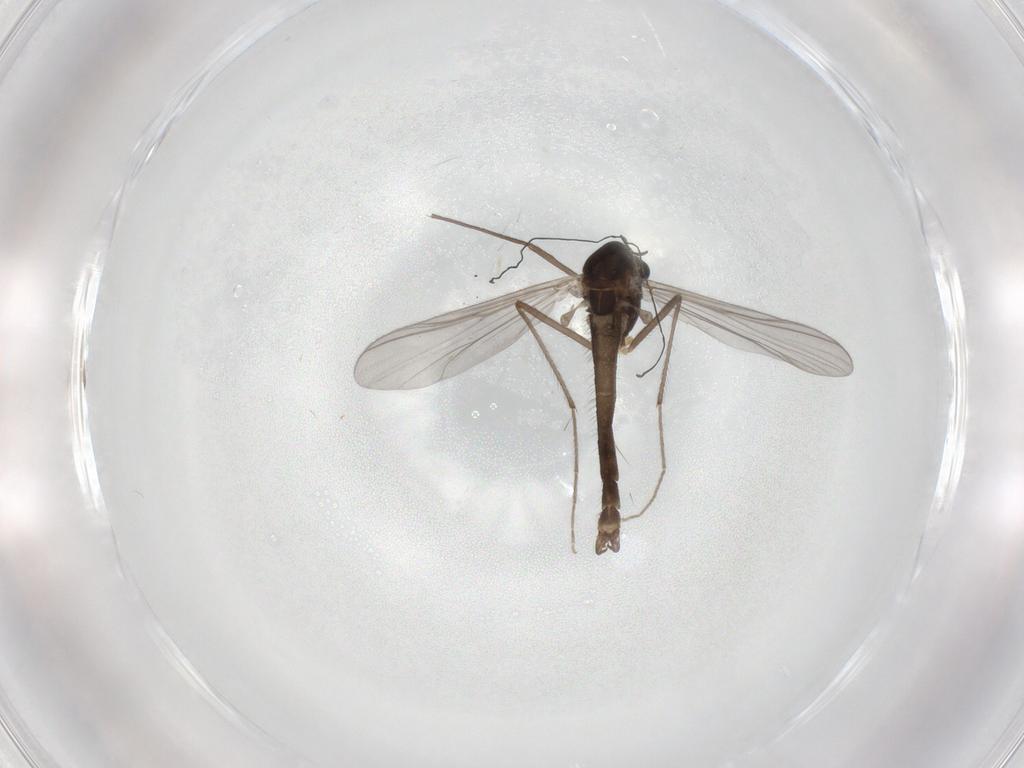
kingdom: Animalia
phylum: Arthropoda
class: Insecta
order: Diptera
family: Chironomidae
